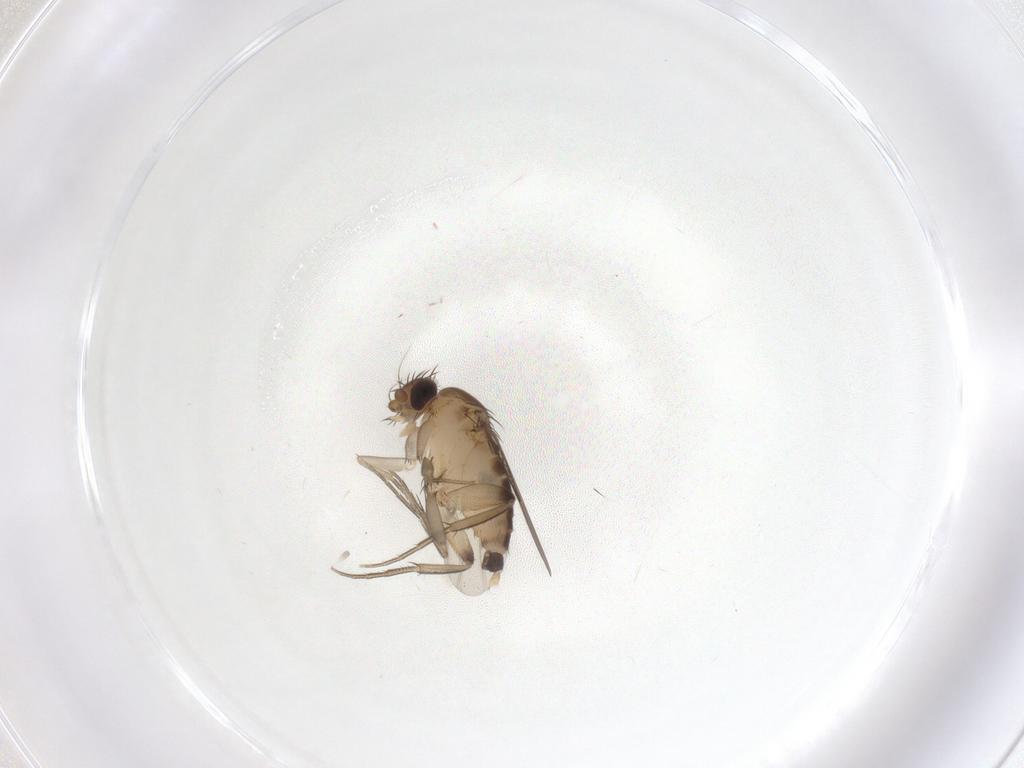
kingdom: Animalia
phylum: Arthropoda
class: Insecta
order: Diptera
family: Phoridae
